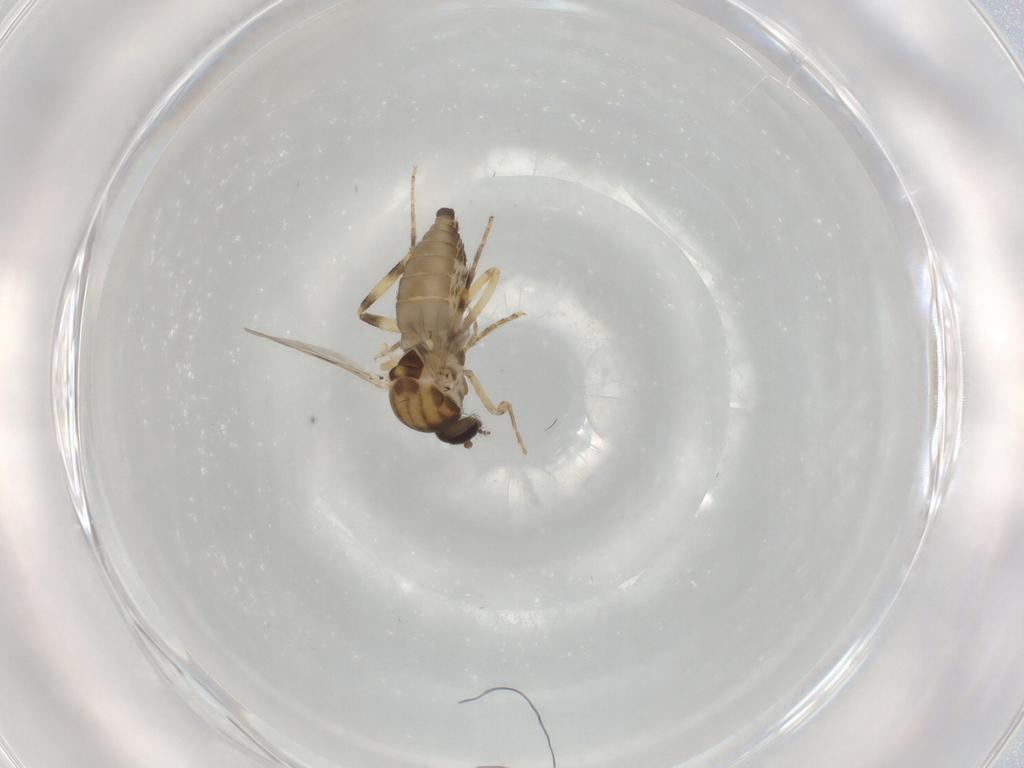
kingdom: Animalia
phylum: Arthropoda
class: Insecta
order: Diptera
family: Ceratopogonidae
